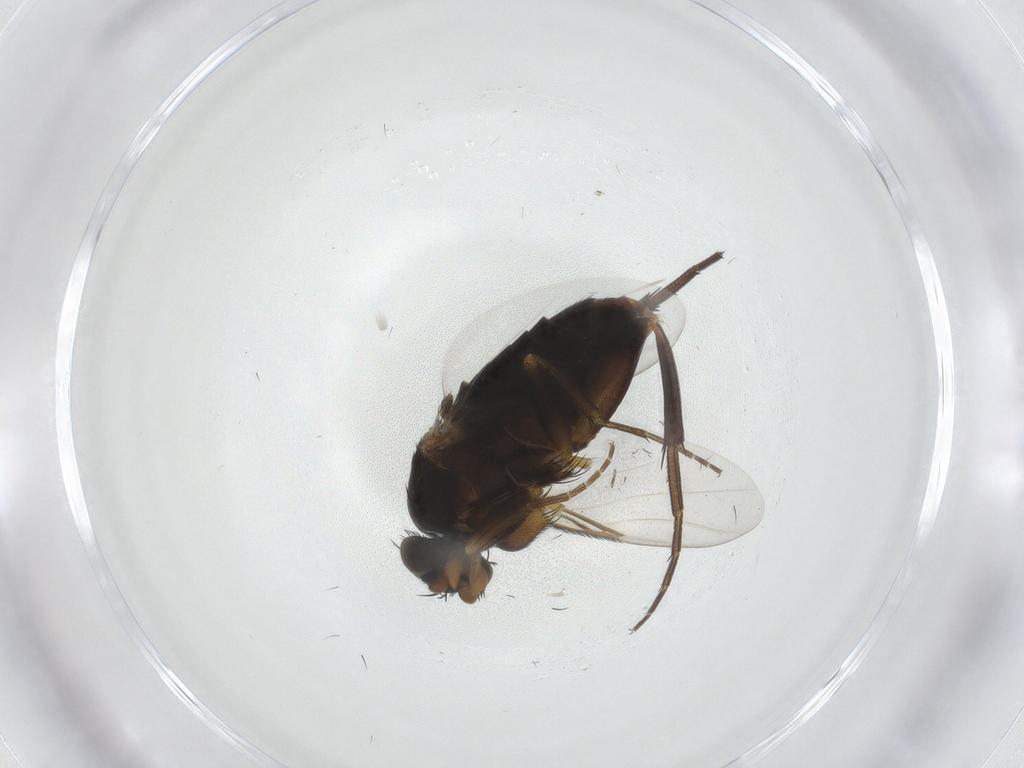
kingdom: Animalia
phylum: Arthropoda
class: Insecta
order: Diptera
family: Phoridae
